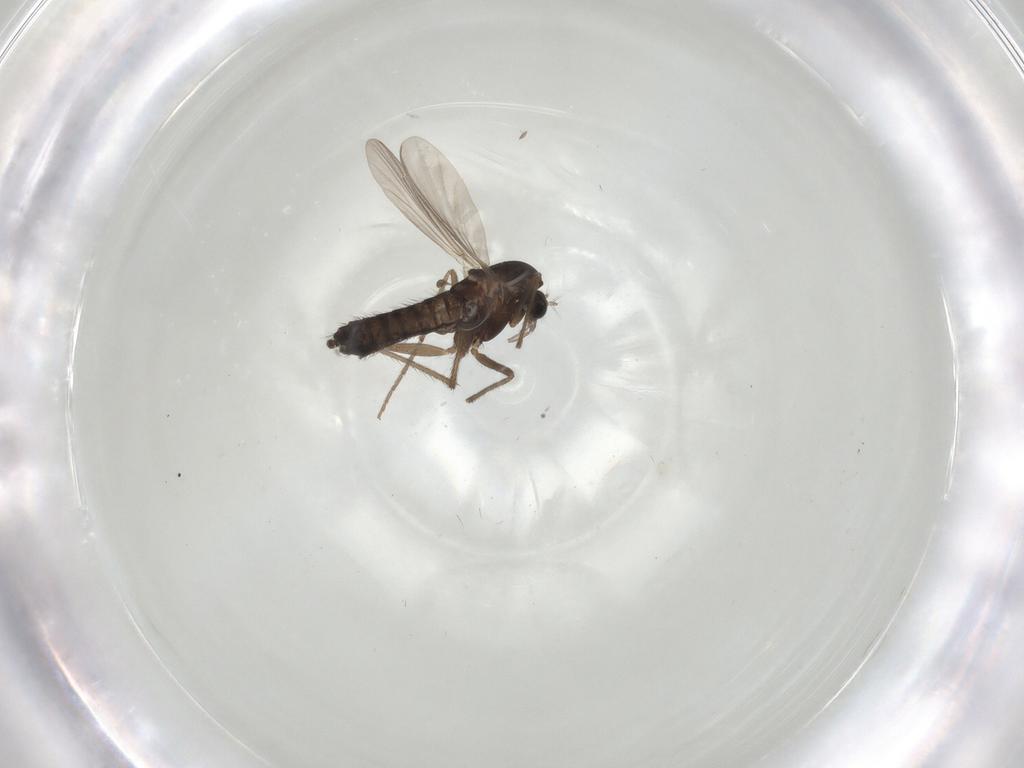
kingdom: Animalia
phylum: Arthropoda
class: Insecta
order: Diptera
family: Chironomidae
